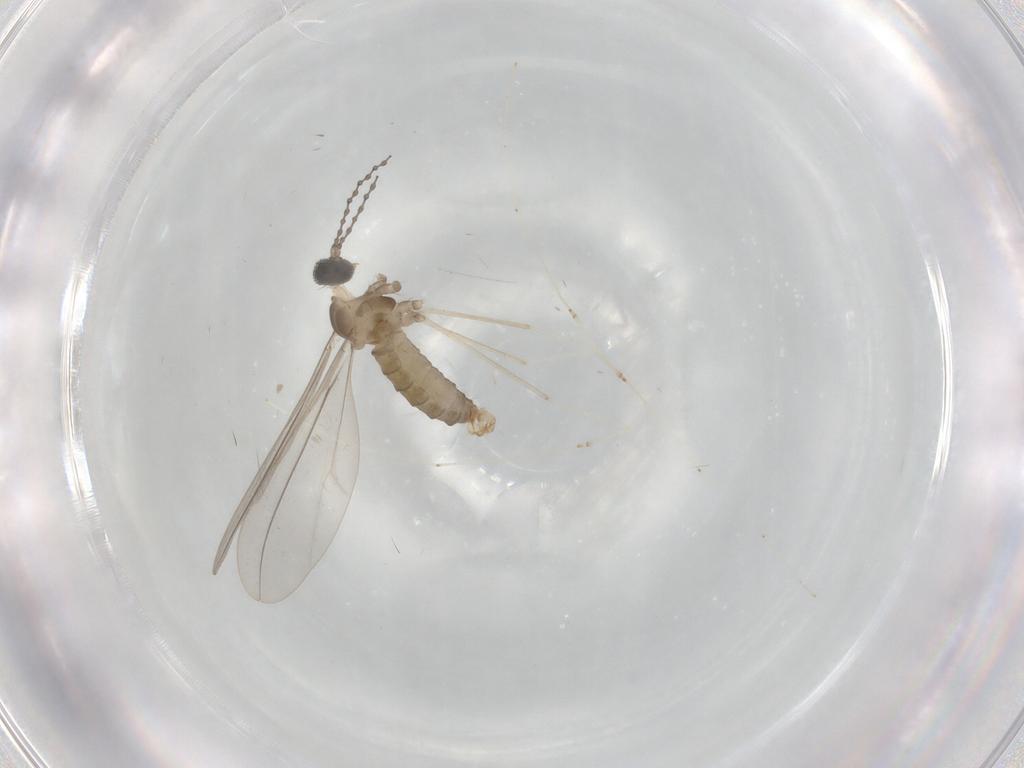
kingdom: Animalia
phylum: Arthropoda
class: Insecta
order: Diptera
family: Cecidomyiidae
